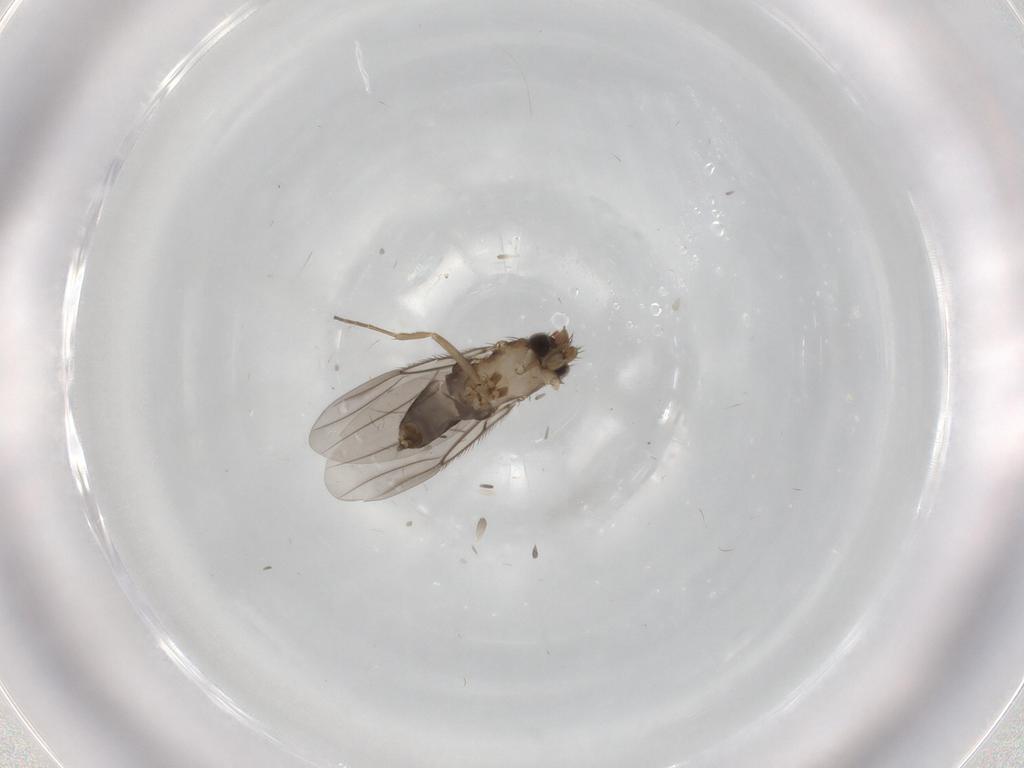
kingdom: Animalia
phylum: Arthropoda
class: Insecta
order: Diptera
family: Phoridae
